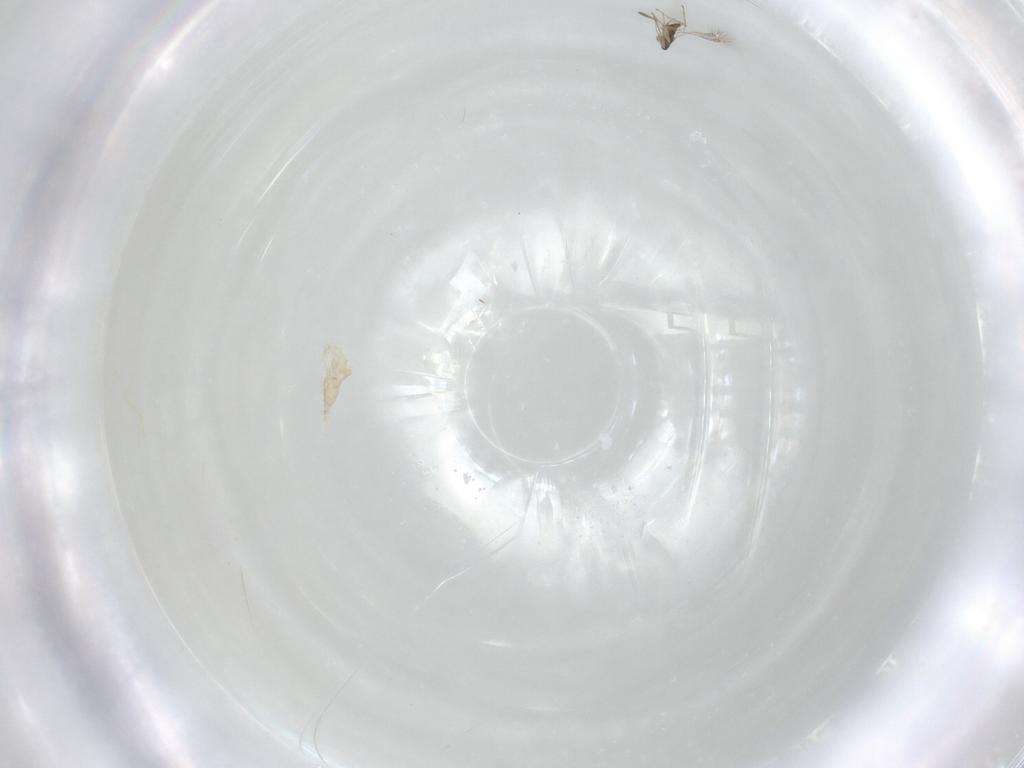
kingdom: Animalia
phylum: Arthropoda
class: Insecta
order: Hymenoptera
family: Mymaridae
